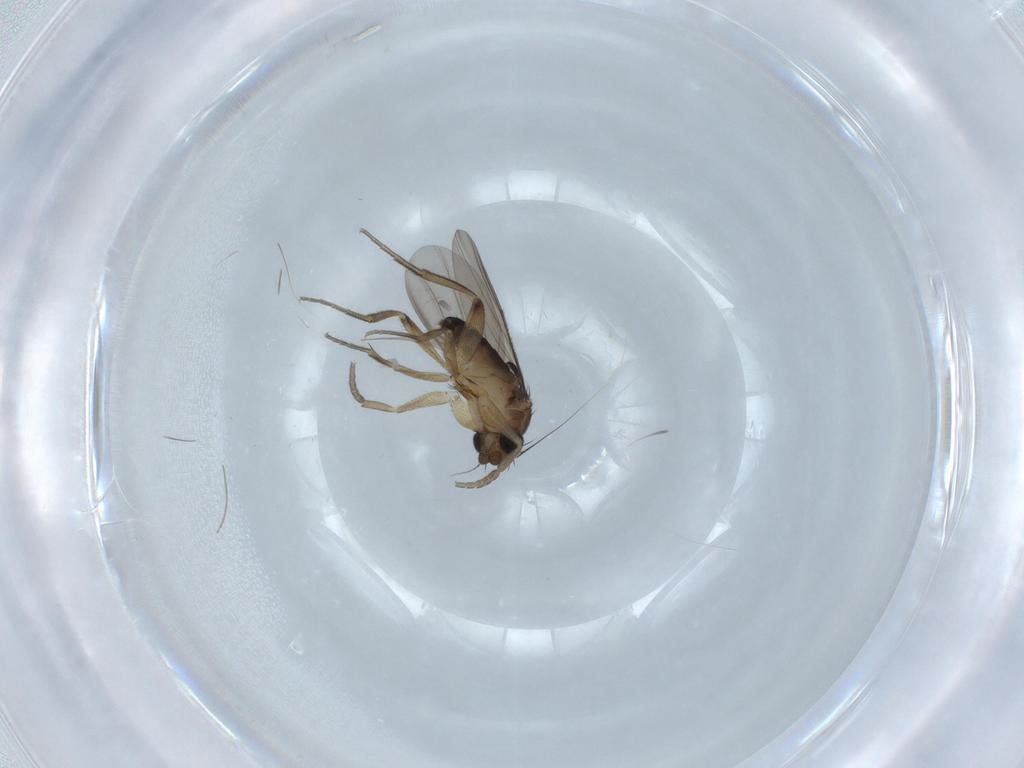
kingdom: Animalia
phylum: Arthropoda
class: Insecta
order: Diptera
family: Phoridae
